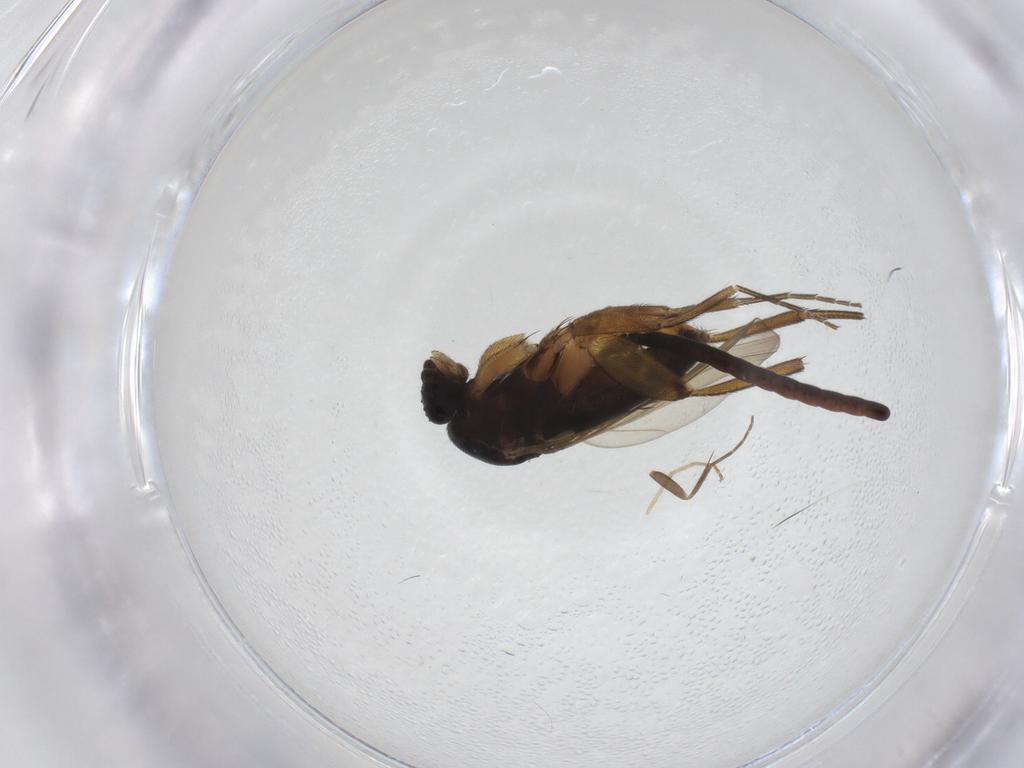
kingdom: Animalia
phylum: Arthropoda
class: Insecta
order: Diptera
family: Phoridae
